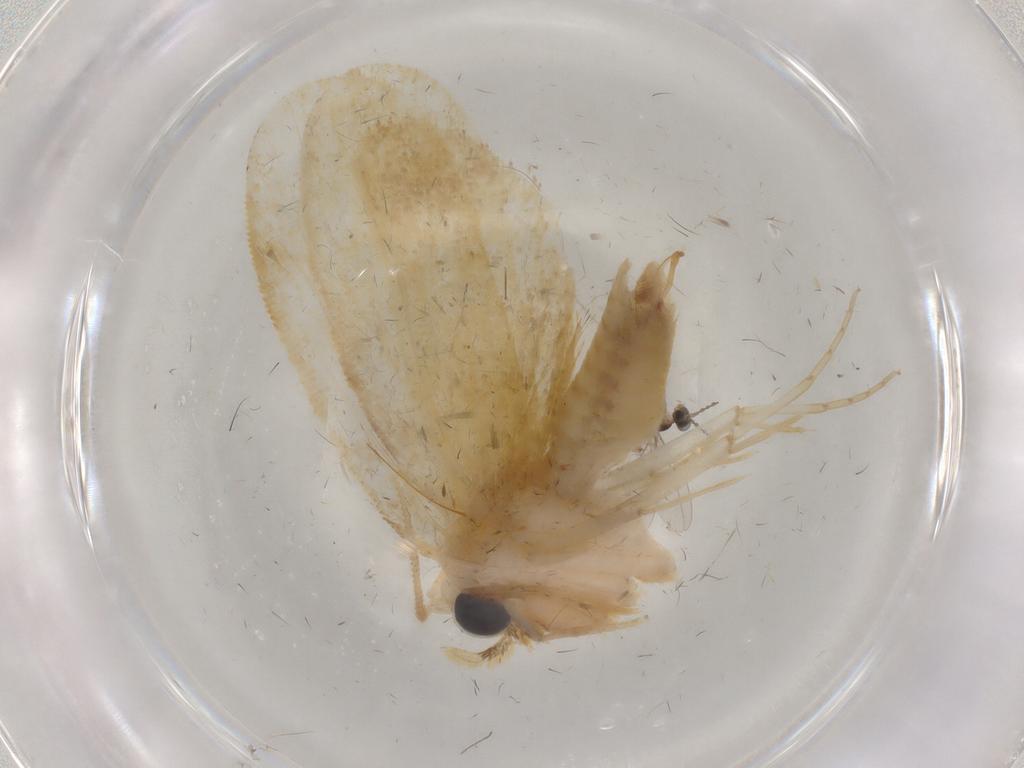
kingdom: Animalia
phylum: Arthropoda
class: Insecta
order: Lepidoptera
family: Psychidae
